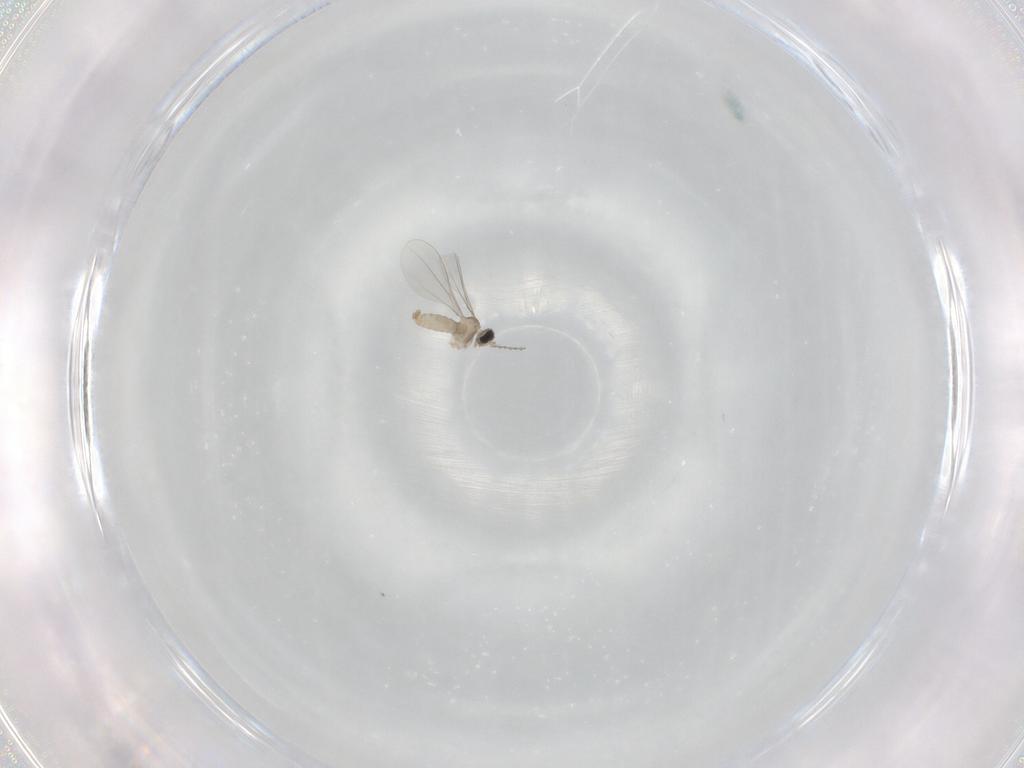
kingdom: Animalia
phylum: Arthropoda
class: Insecta
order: Diptera
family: Cecidomyiidae
